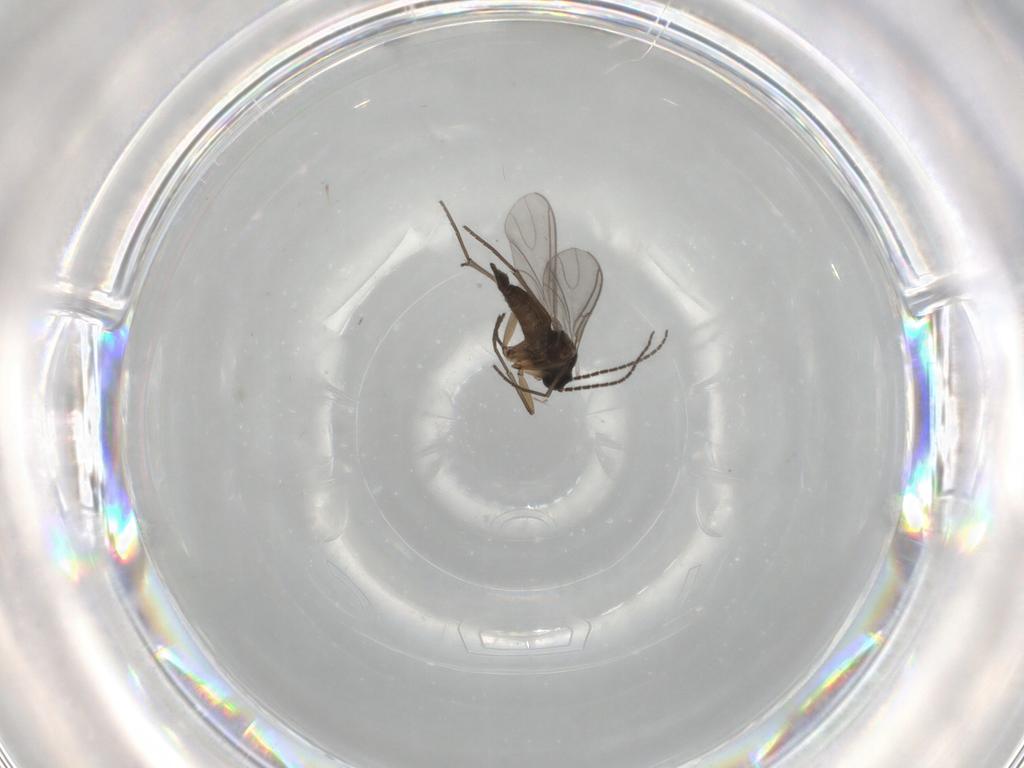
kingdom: Animalia
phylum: Arthropoda
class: Insecta
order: Diptera
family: Sciaridae
